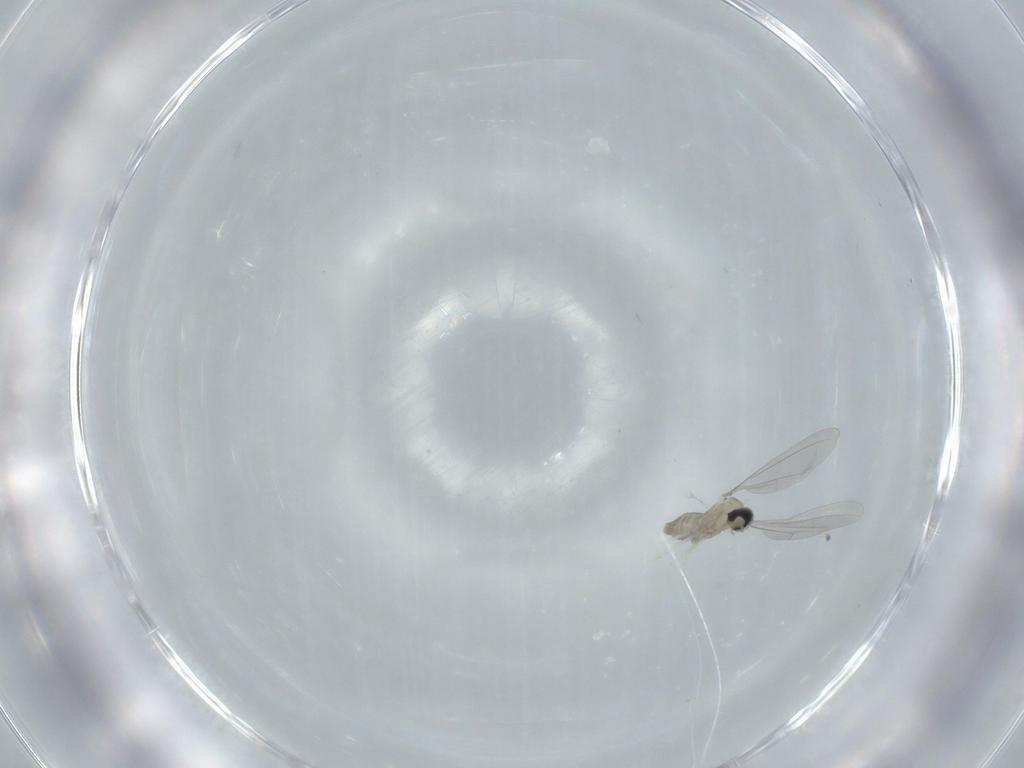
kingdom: Animalia
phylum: Arthropoda
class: Insecta
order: Diptera
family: Cecidomyiidae
